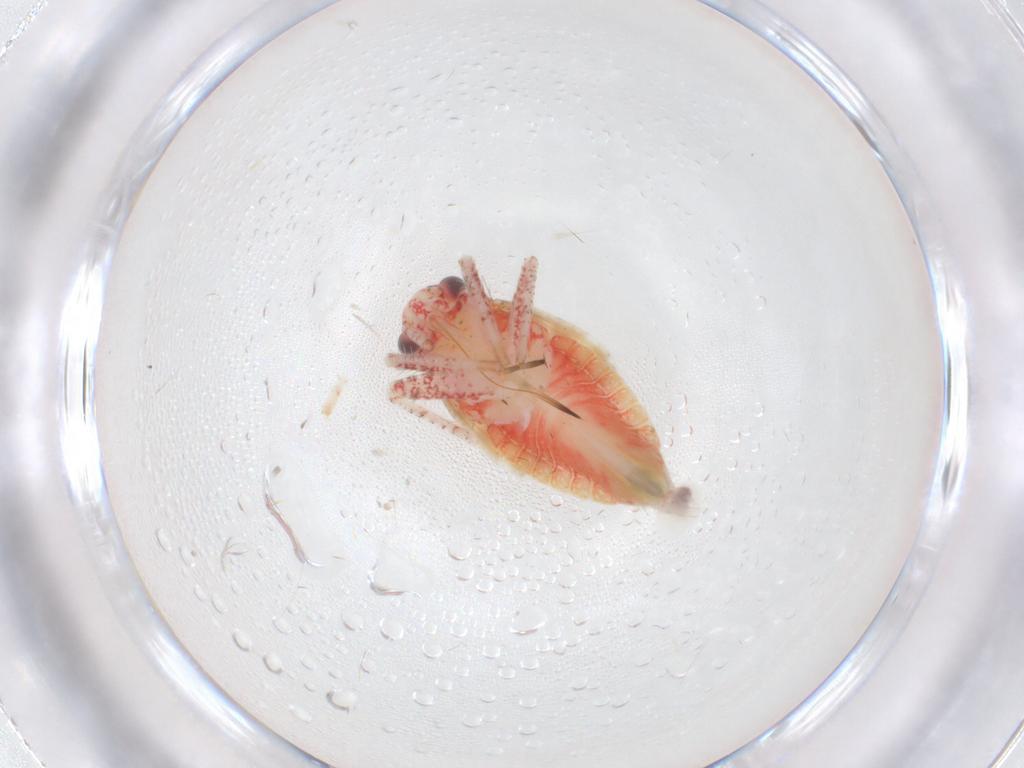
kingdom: Animalia
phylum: Arthropoda
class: Insecta
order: Hemiptera
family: Miridae
